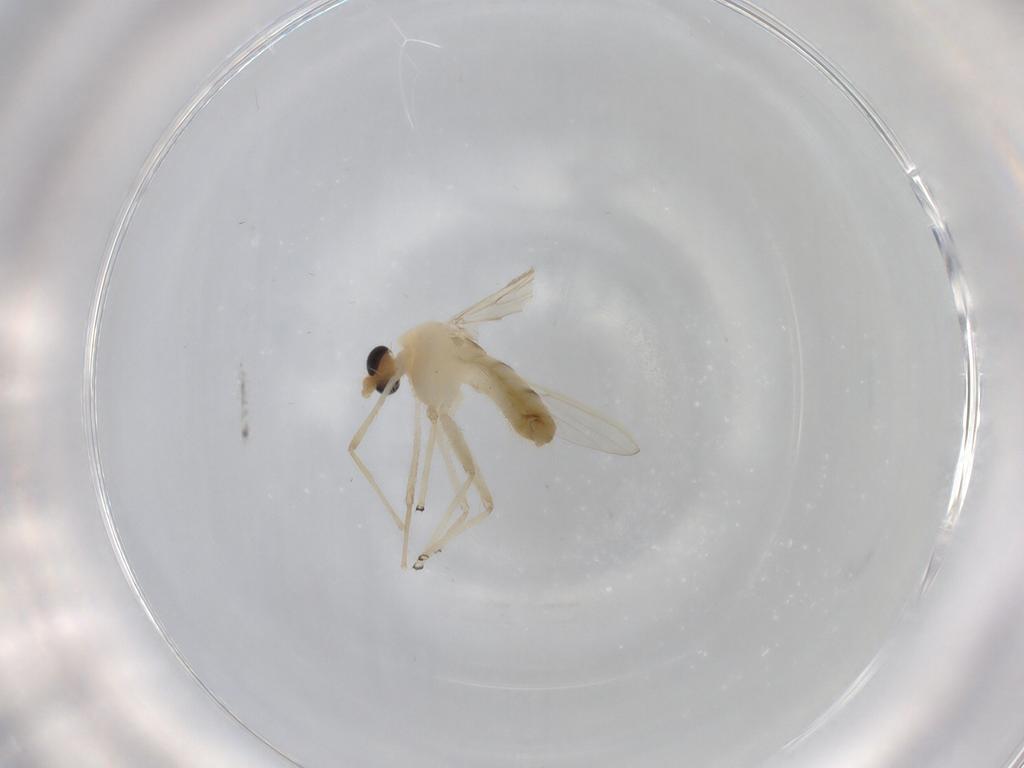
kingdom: Animalia
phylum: Arthropoda
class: Insecta
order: Diptera
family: Chironomidae
